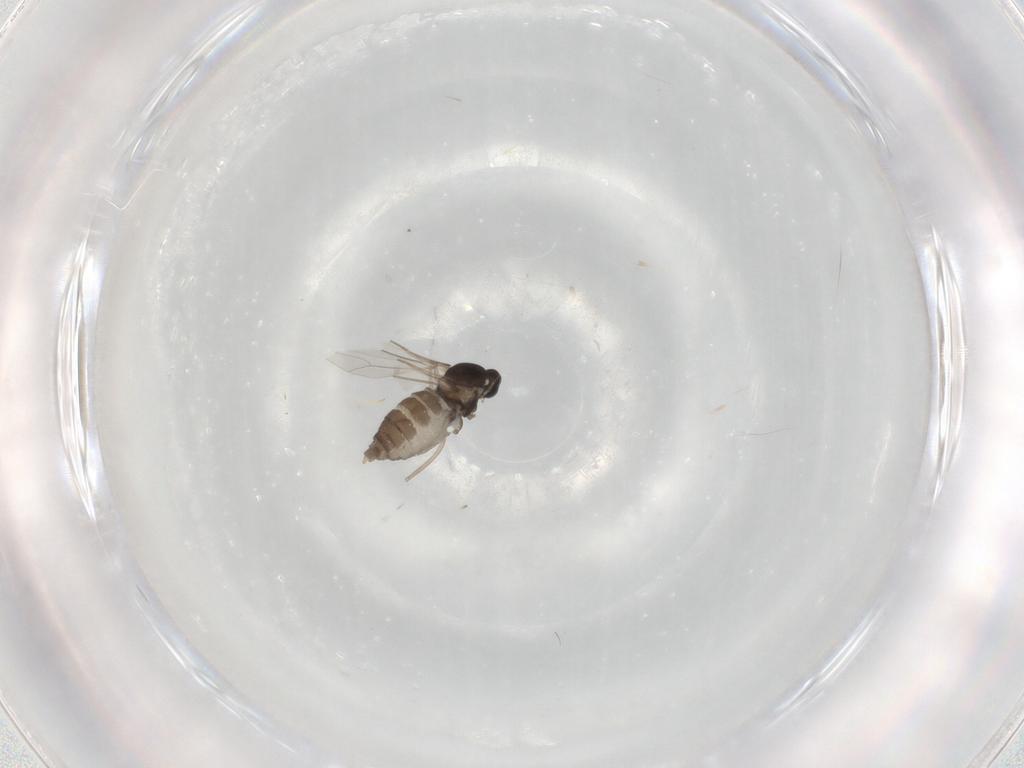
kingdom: Animalia
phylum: Arthropoda
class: Insecta
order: Diptera
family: Cecidomyiidae
